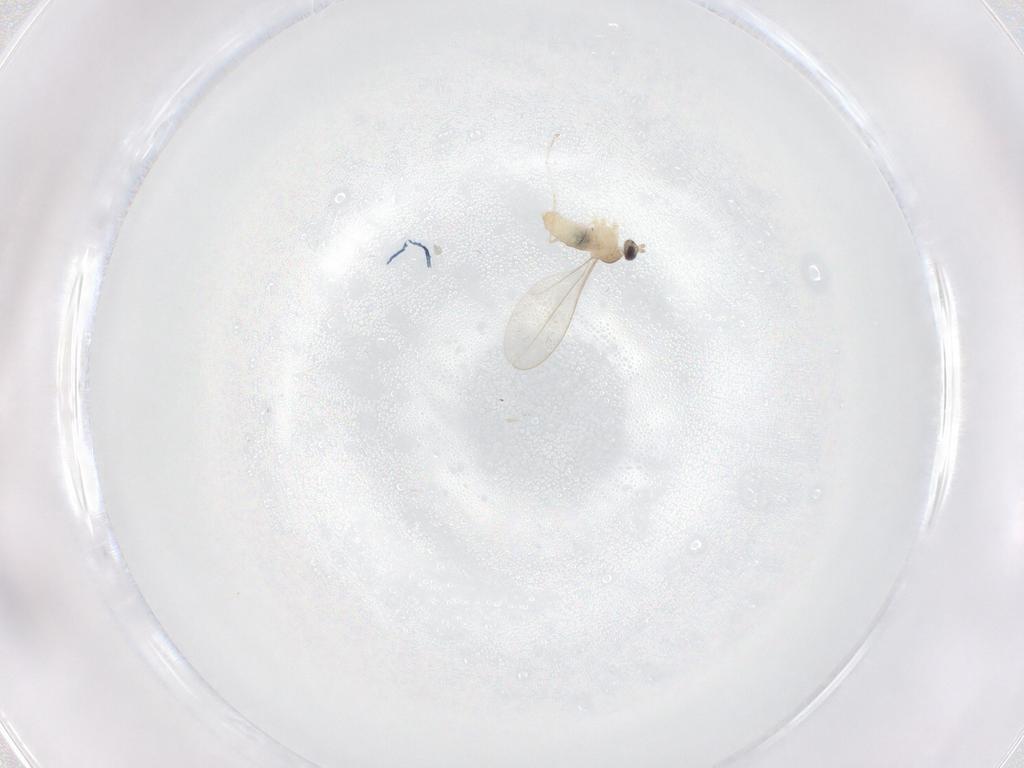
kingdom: Animalia
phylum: Arthropoda
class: Insecta
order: Diptera
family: Cecidomyiidae
